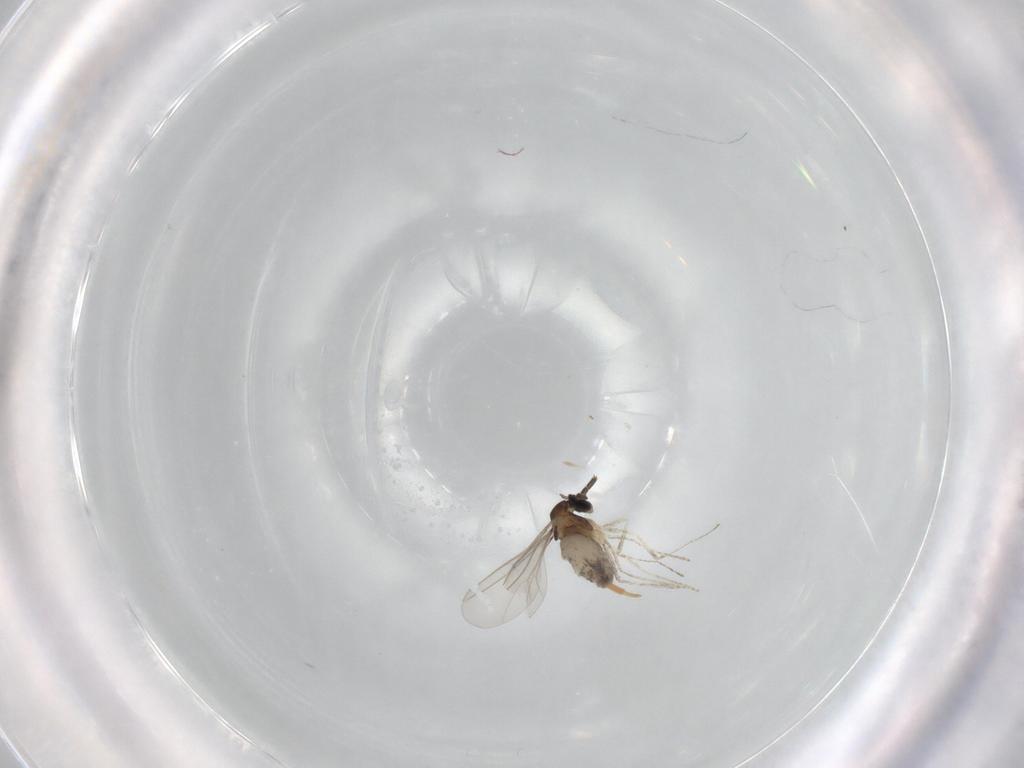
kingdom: Animalia
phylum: Arthropoda
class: Insecta
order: Diptera
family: Cecidomyiidae
